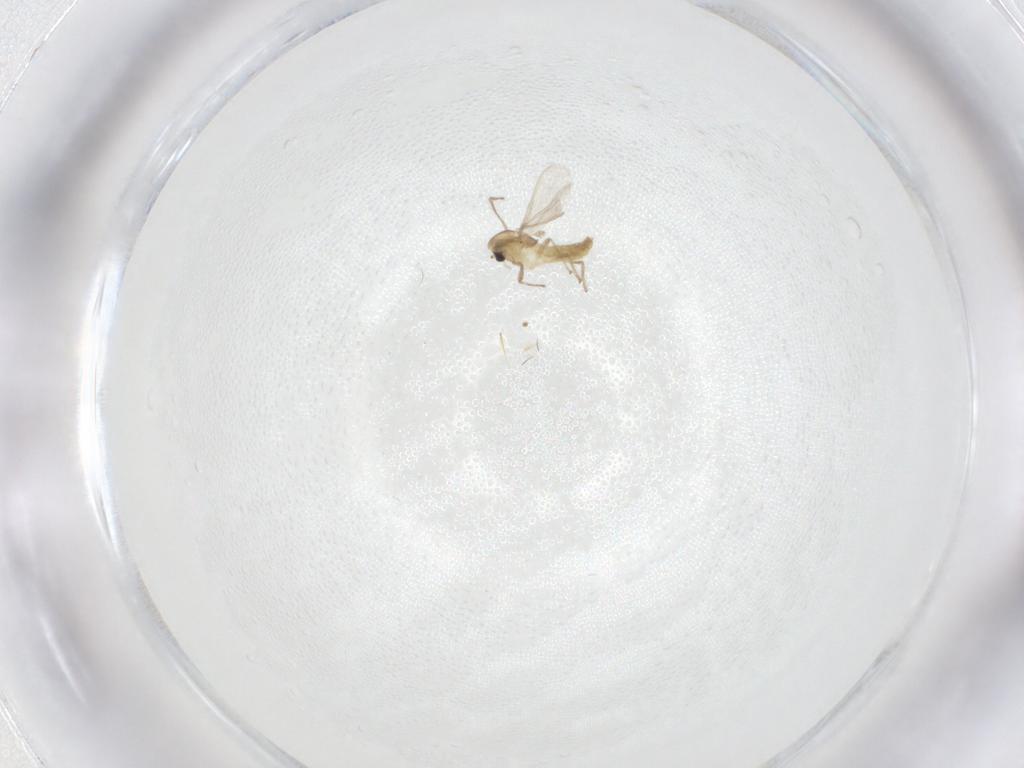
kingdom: Animalia
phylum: Arthropoda
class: Insecta
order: Diptera
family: Cecidomyiidae
